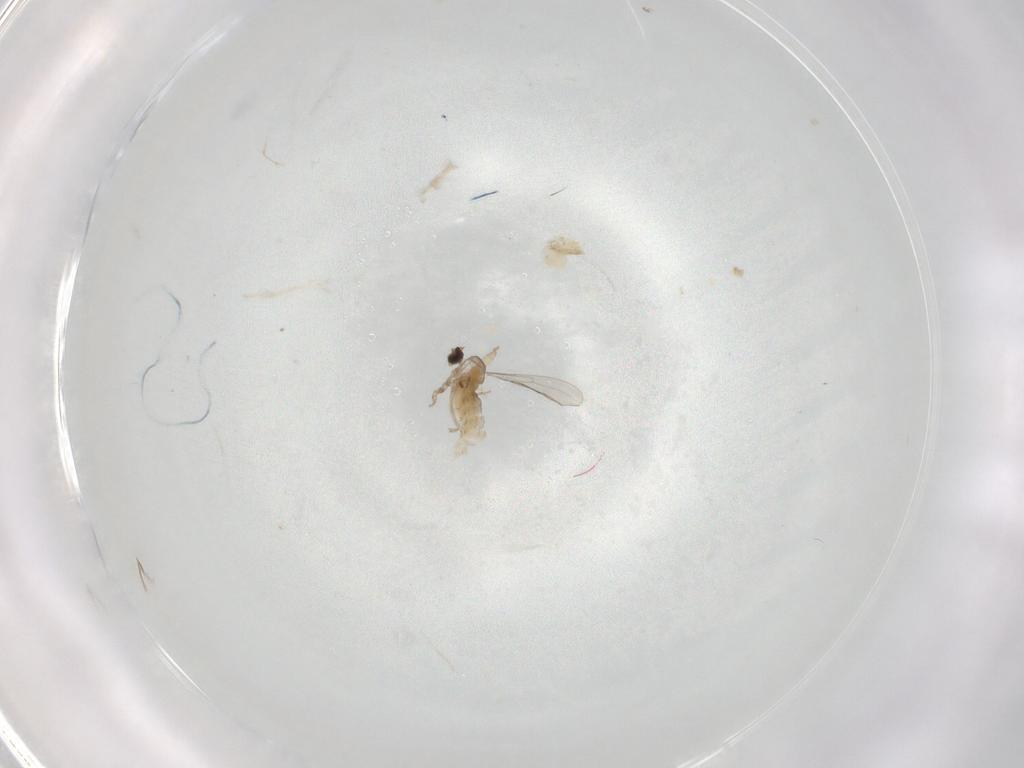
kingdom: Animalia
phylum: Arthropoda
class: Insecta
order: Diptera
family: Cecidomyiidae
